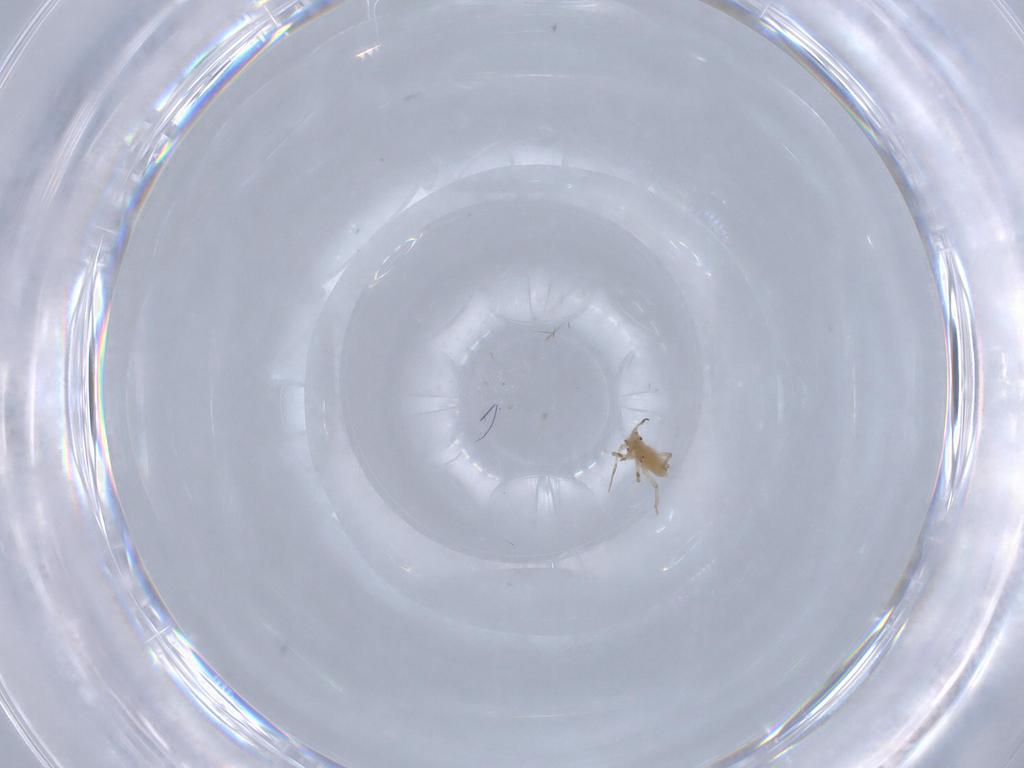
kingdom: Animalia
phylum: Arthropoda
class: Insecta
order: Hemiptera
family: Aphididae
